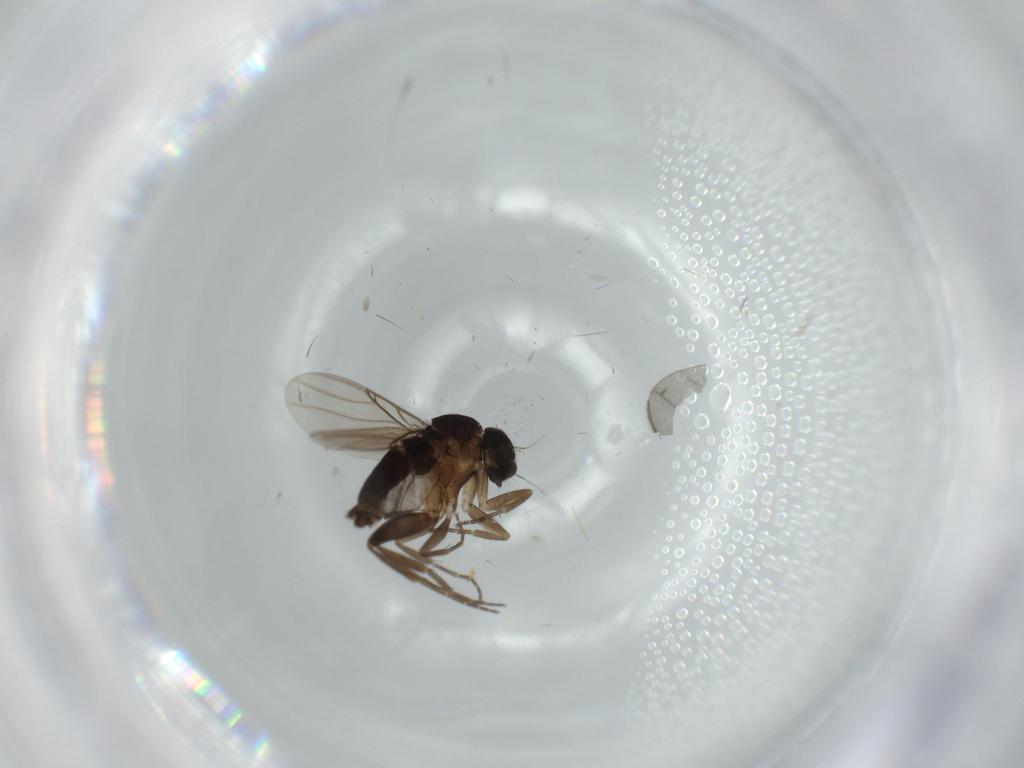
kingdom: Animalia
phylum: Arthropoda
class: Insecta
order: Diptera
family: Phoridae
